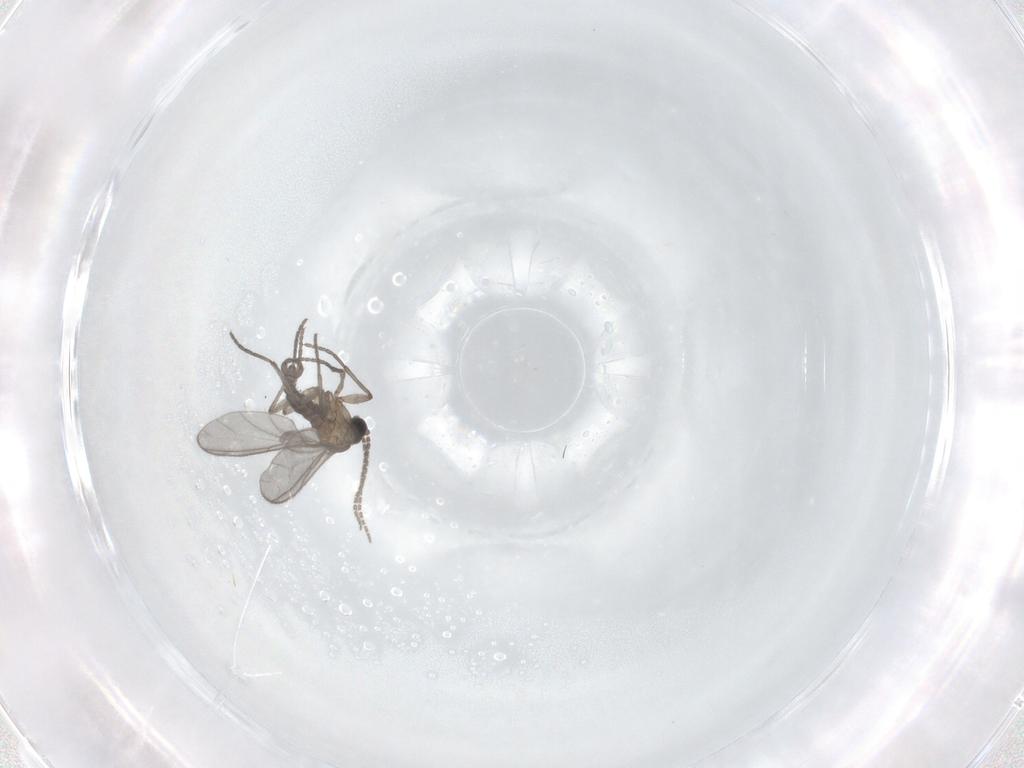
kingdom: Animalia
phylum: Arthropoda
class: Insecta
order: Diptera
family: Sciaridae
